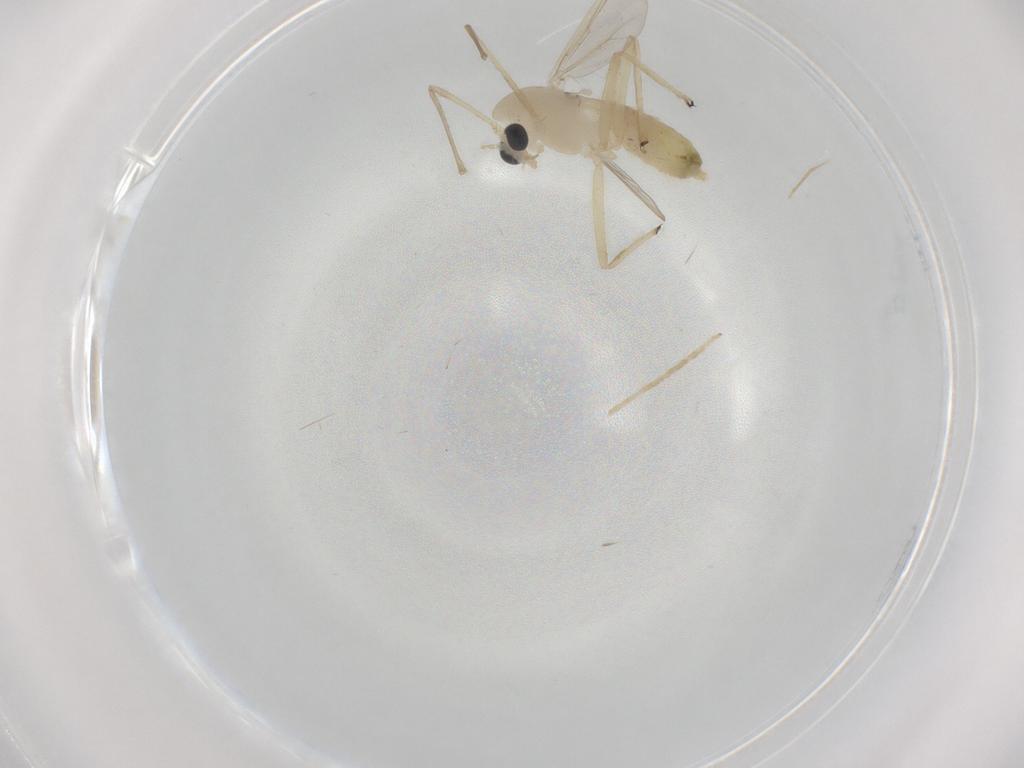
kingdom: Animalia
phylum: Arthropoda
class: Insecta
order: Diptera
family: Chironomidae
